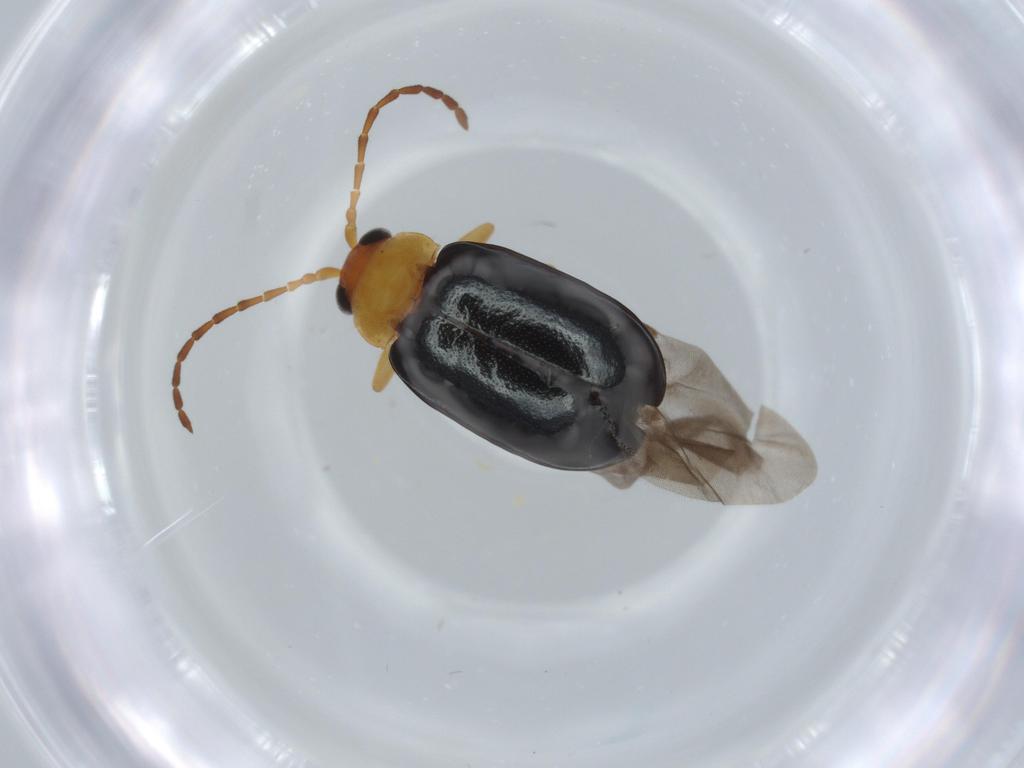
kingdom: Animalia
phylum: Arthropoda
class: Insecta
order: Coleoptera
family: Chrysomelidae
